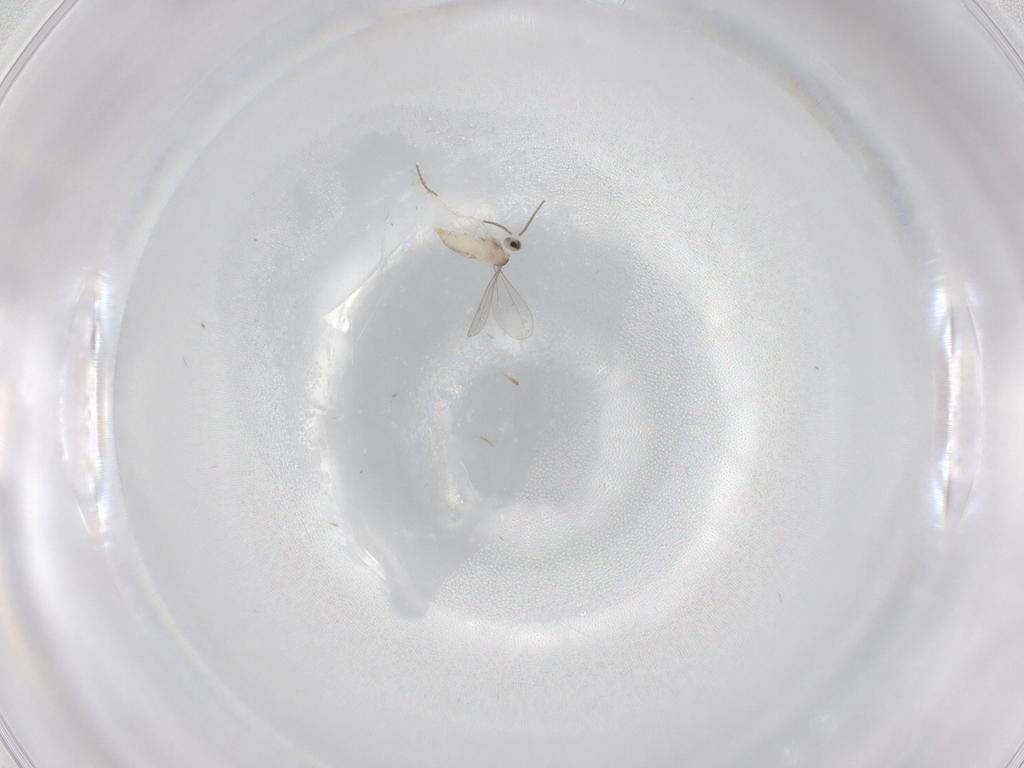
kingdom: Animalia
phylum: Arthropoda
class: Insecta
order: Diptera
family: Cecidomyiidae
